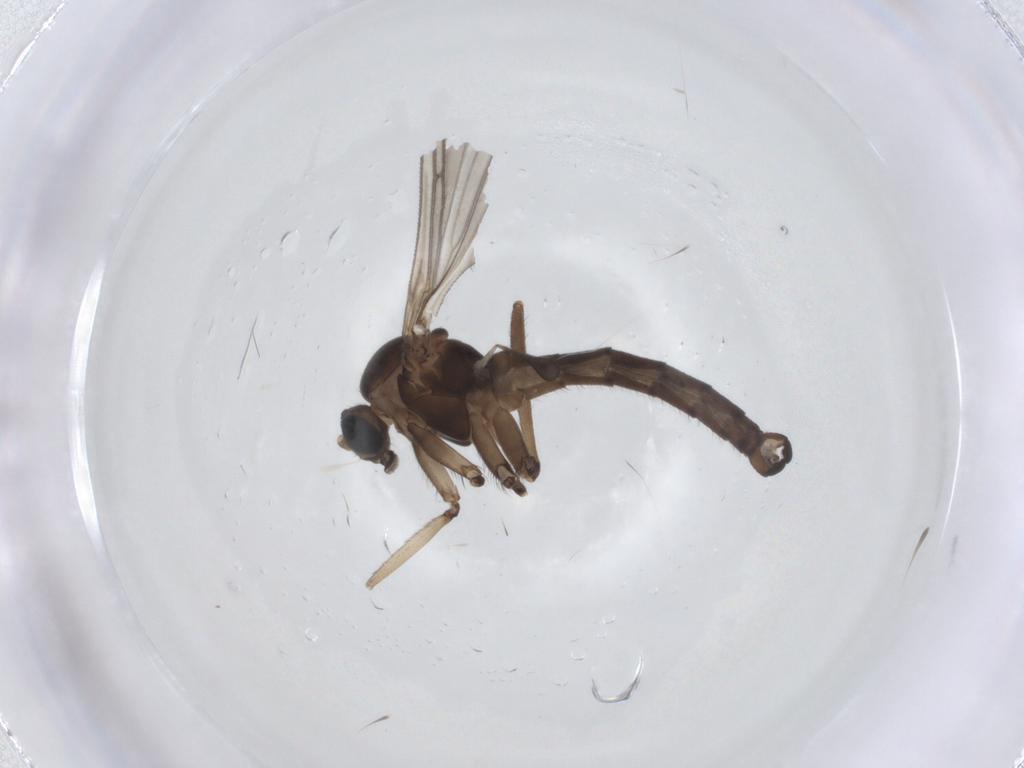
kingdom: Animalia
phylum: Arthropoda
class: Insecta
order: Diptera
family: Sciaridae
